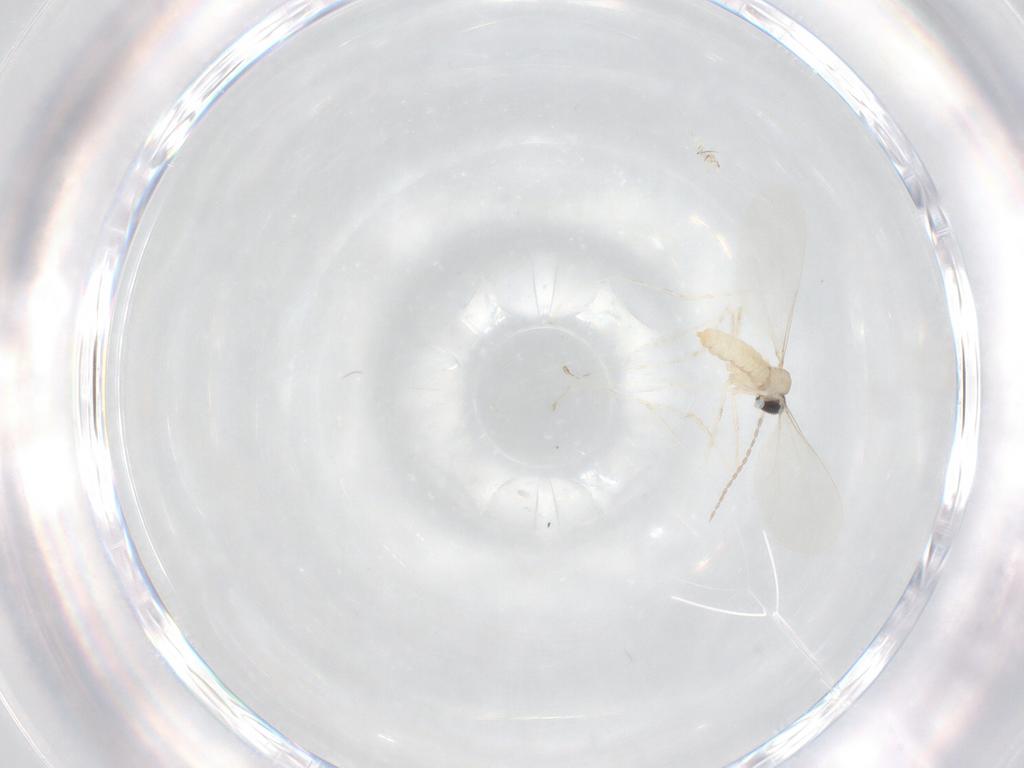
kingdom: Animalia
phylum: Arthropoda
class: Insecta
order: Diptera
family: Cecidomyiidae
